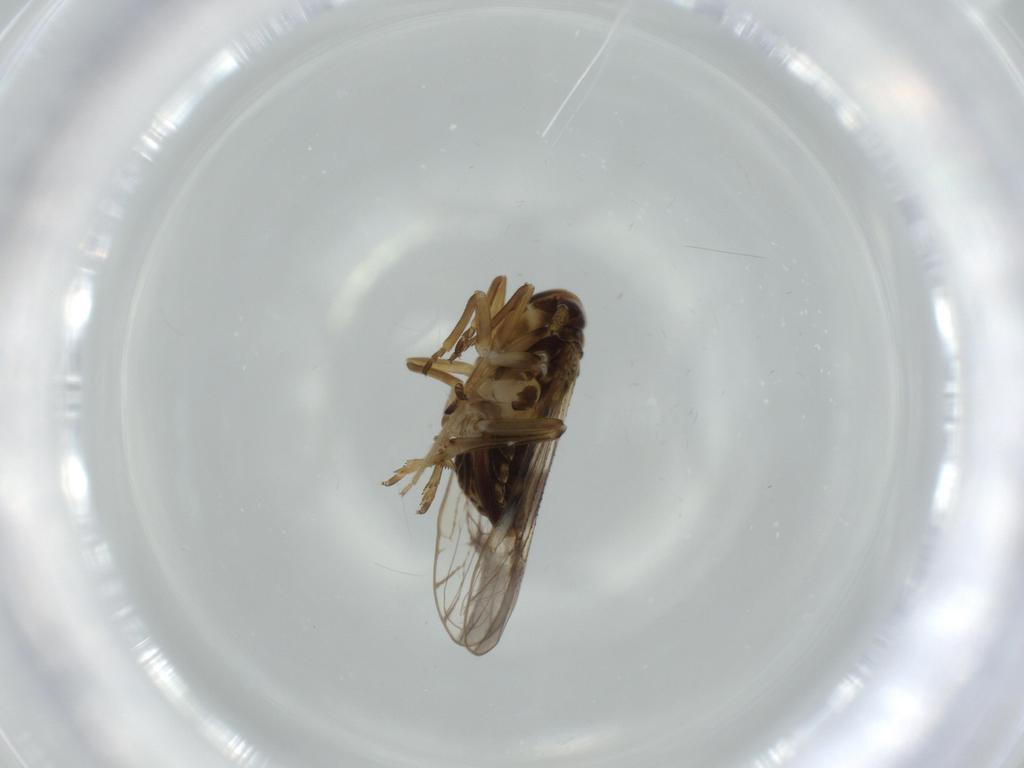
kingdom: Animalia
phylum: Arthropoda
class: Insecta
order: Hemiptera
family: Delphacidae
